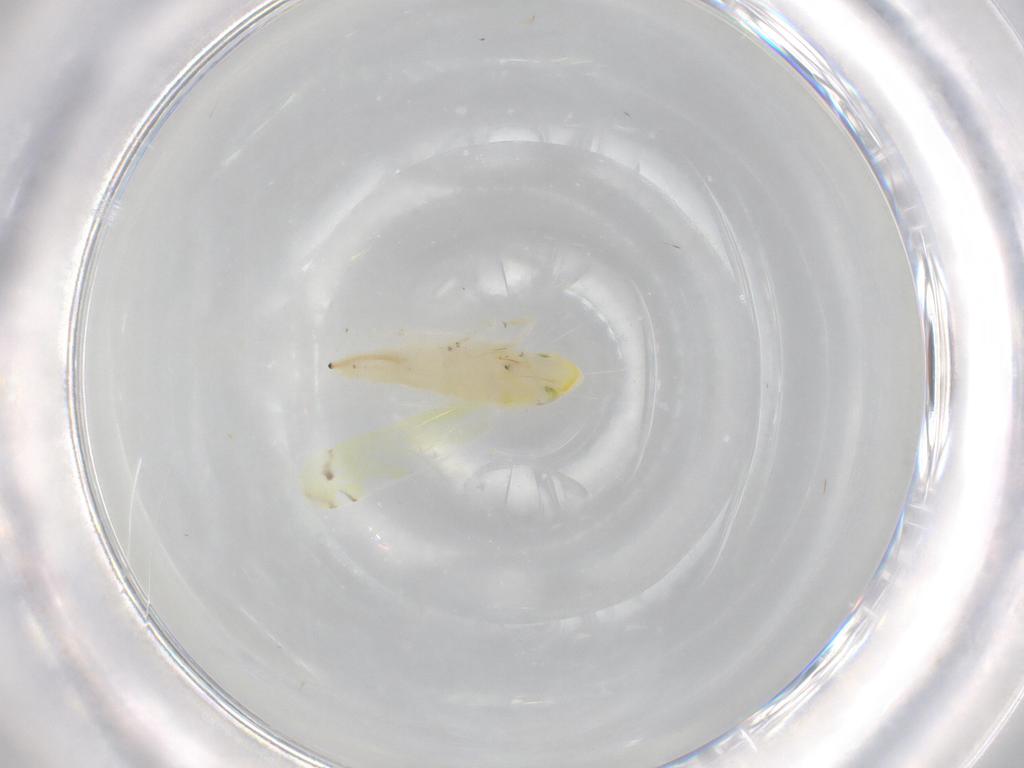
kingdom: Animalia
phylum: Arthropoda
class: Insecta
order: Hemiptera
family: Cicadellidae
